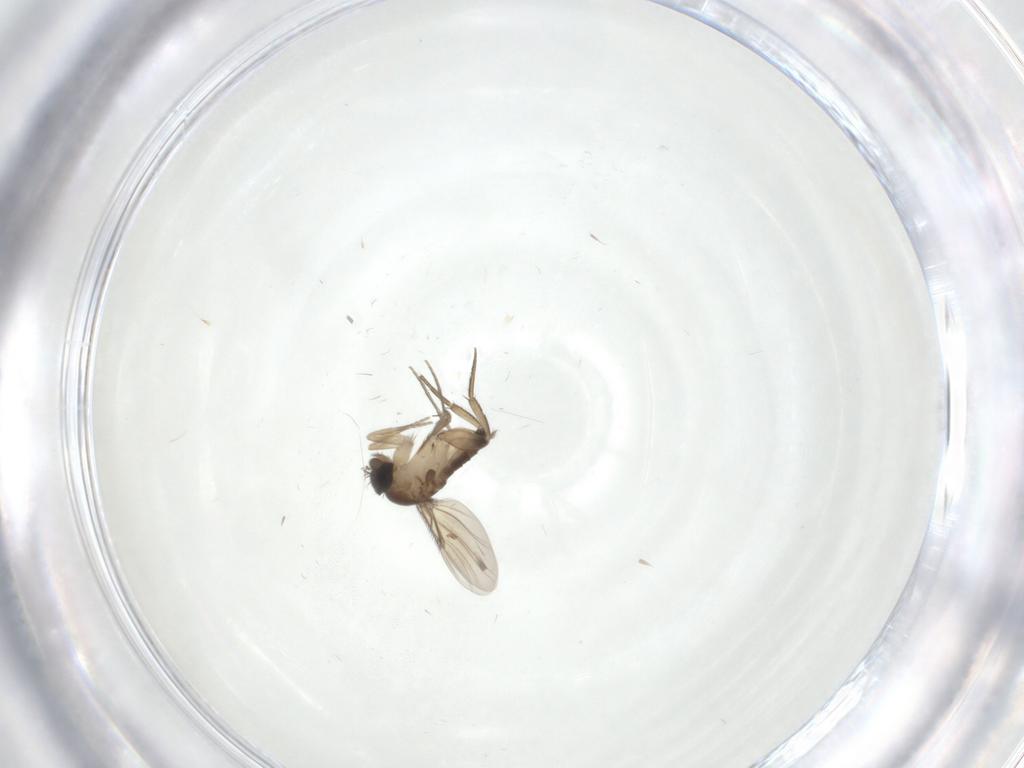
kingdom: Animalia
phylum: Arthropoda
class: Insecta
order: Diptera
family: Phoridae
